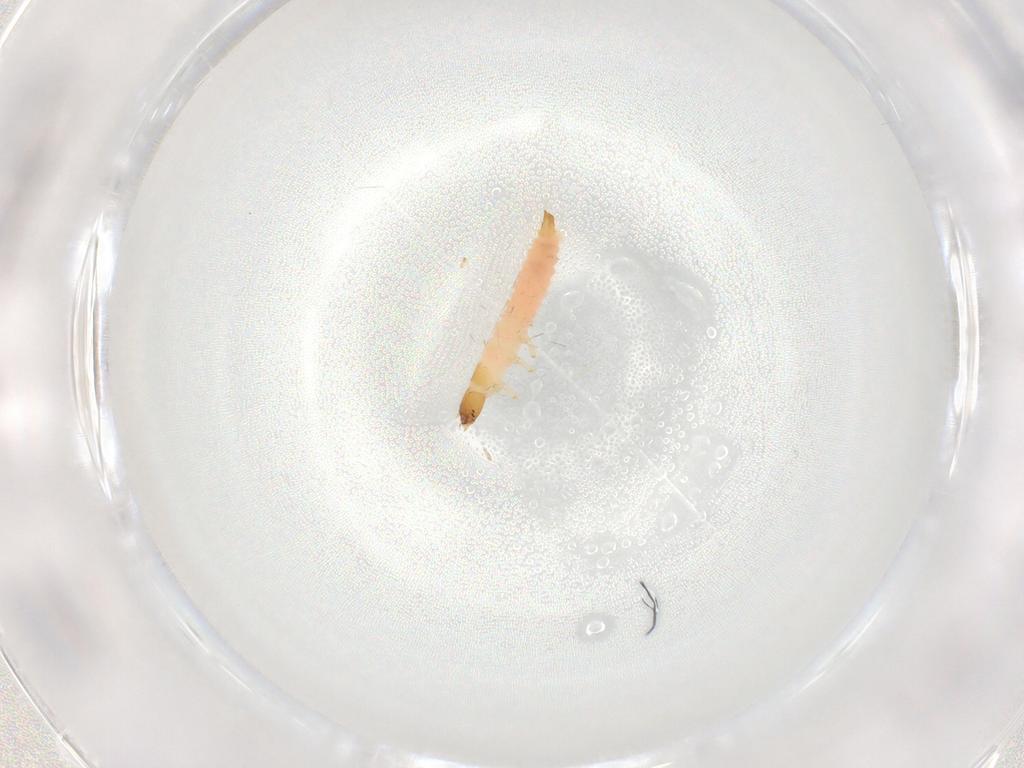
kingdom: Animalia
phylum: Arthropoda
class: Insecta
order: Coleoptera
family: Cleridae
